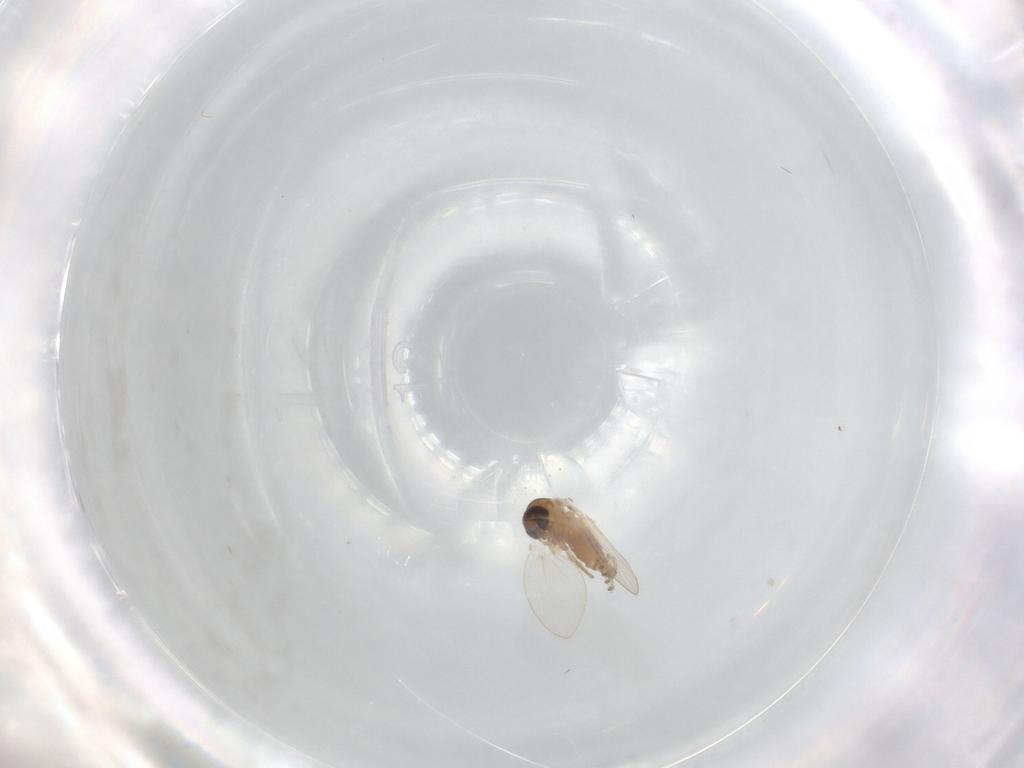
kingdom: Animalia
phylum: Arthropoda
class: Insecta
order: Diptera
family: Psychodidae
